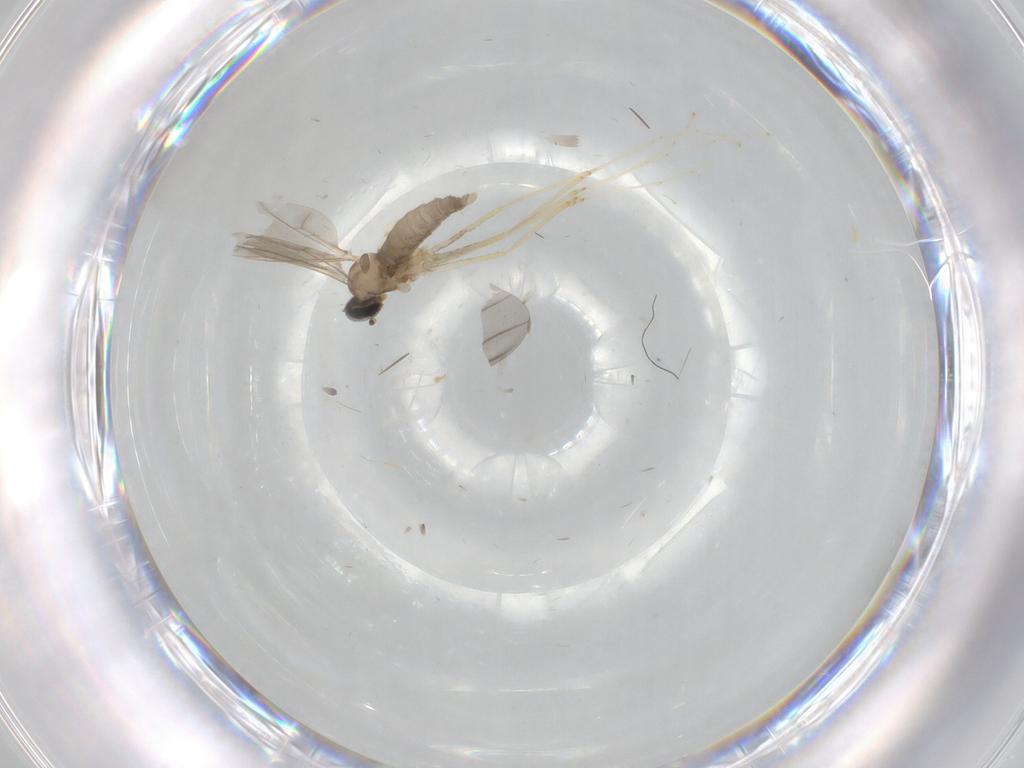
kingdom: Animalia
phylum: Arthropoda
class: Insecta
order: Diptera
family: Cecidomyiidae
